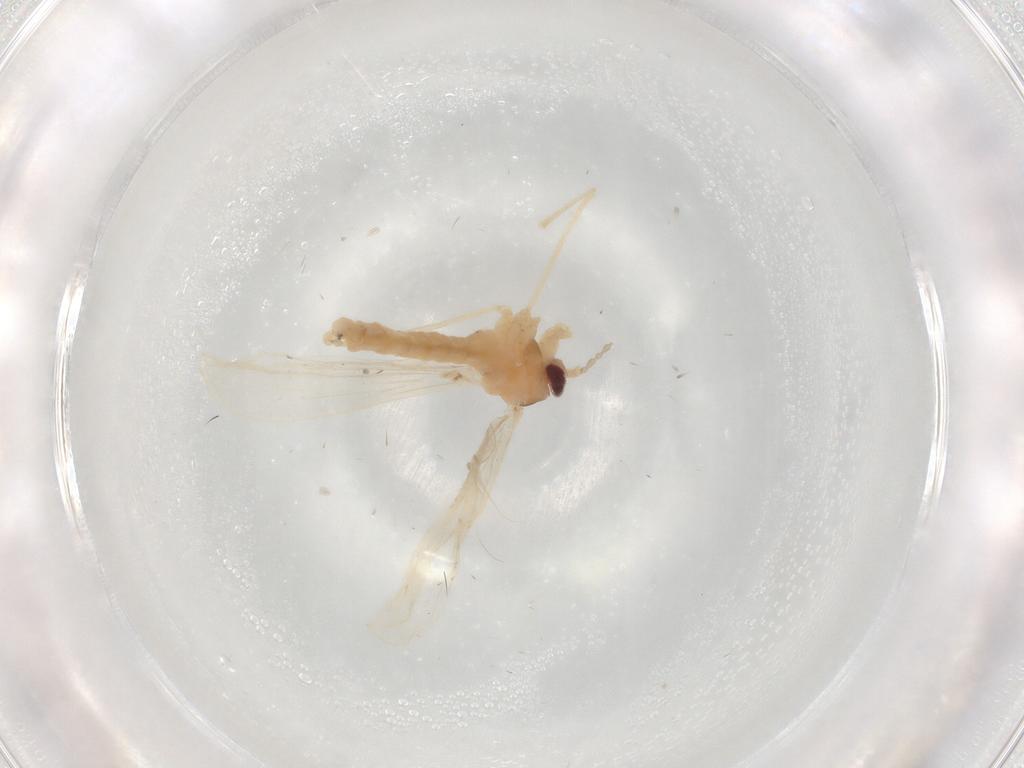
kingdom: Animalia
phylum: Arthropoda
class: Insecta
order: Diptera
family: Cecidomyiidae
